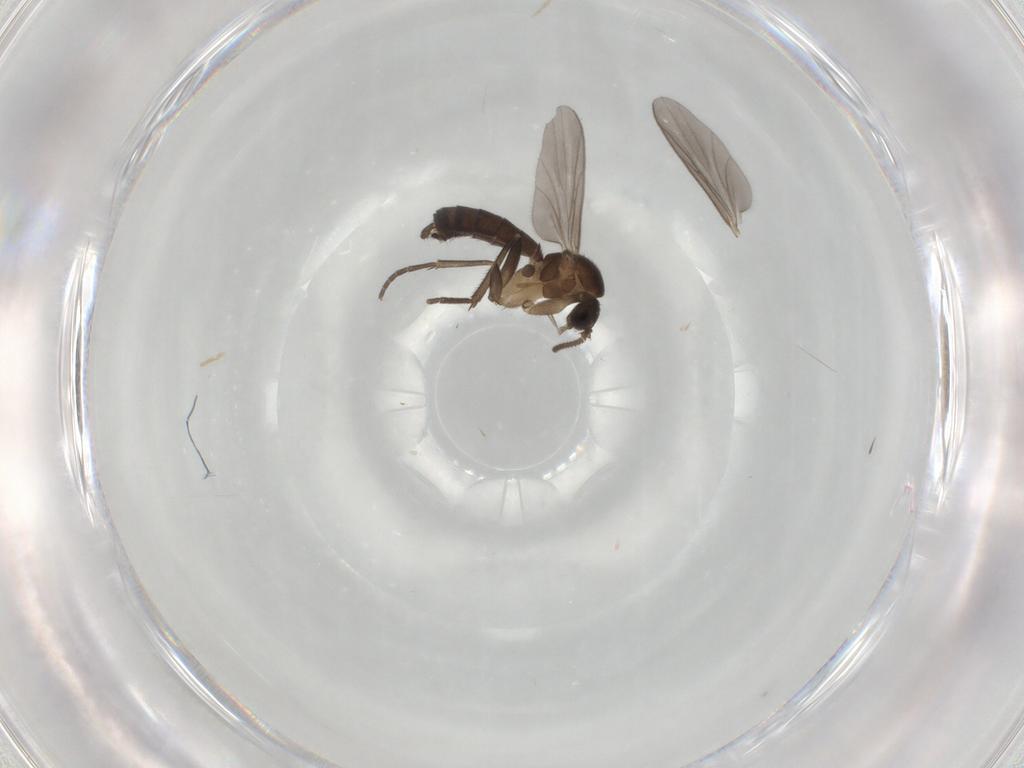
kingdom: Animalia
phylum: Arthropoda
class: Insecta
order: Diptera
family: Mycetophilidae
